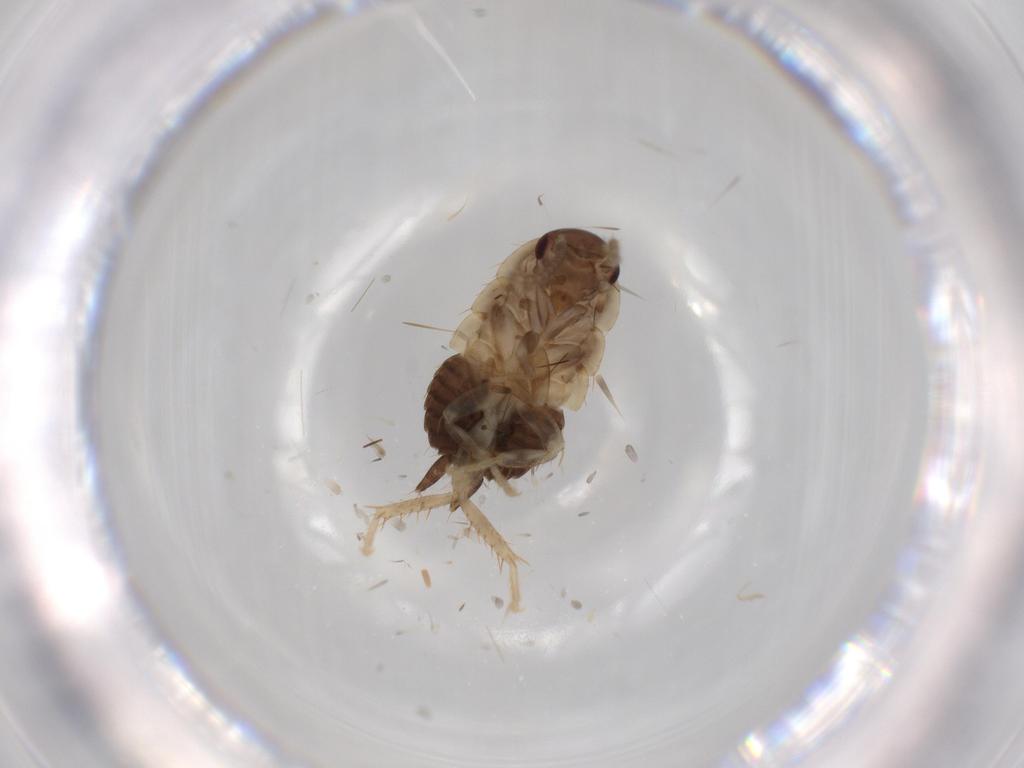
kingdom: Animalia
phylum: Arthropoda
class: Insecta
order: Blattodea
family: Ectobiidae
